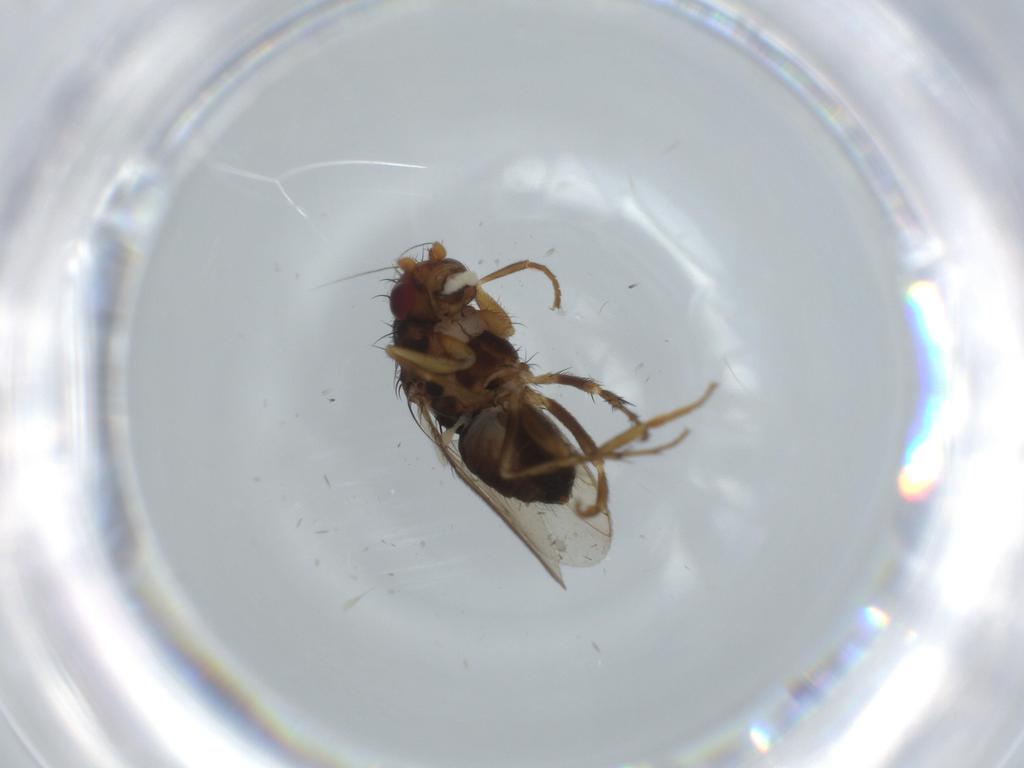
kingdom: Animalia
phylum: Arthropoda
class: Insecta
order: Diptera
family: Sphaeroceridae
